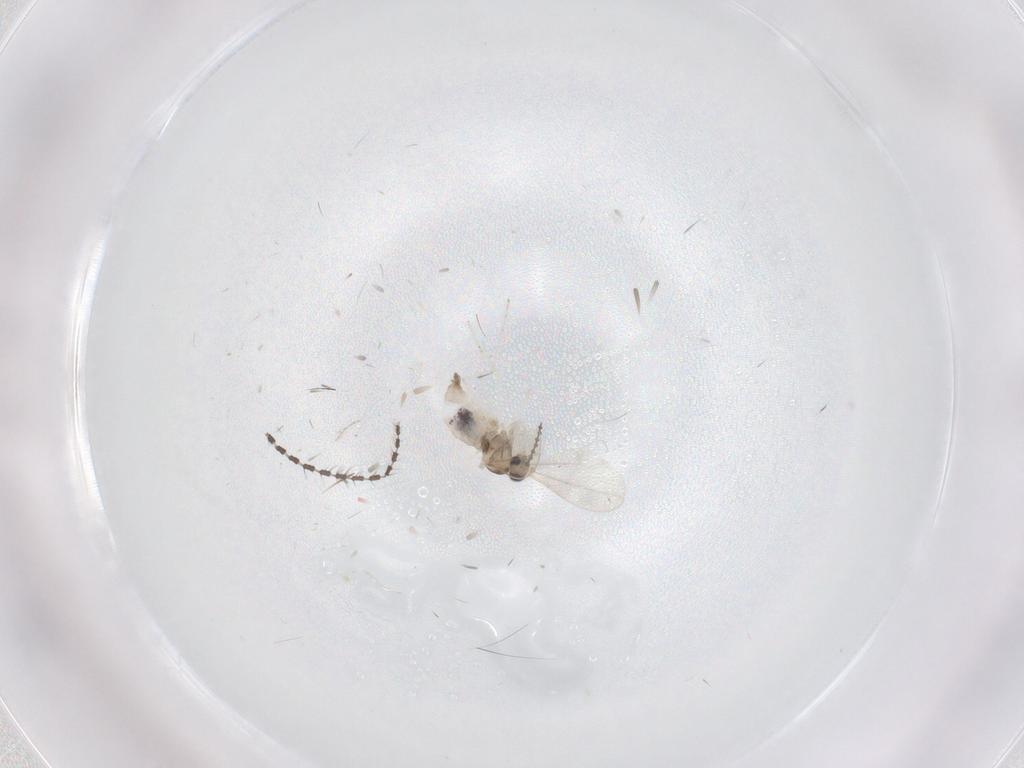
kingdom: Animalia
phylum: Arthropoda
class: Insecta
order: Diptera
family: Sciaridae
